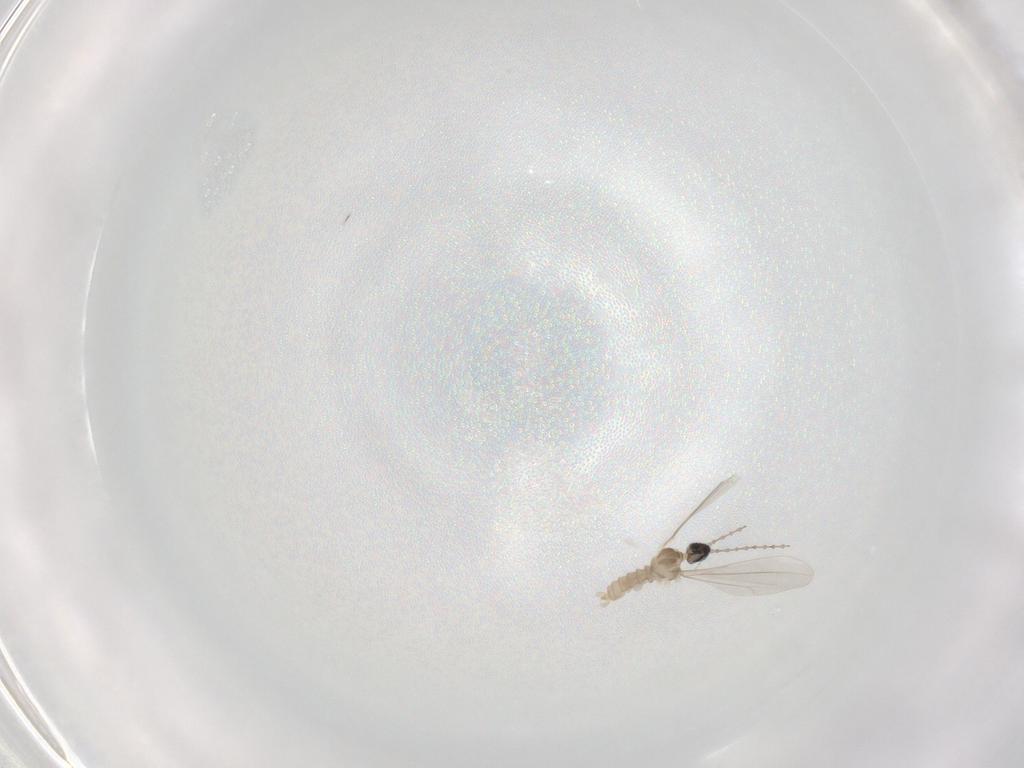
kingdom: Animalia
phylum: Arthropoda
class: Insecta
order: Diptera
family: Cecidomyiidae
